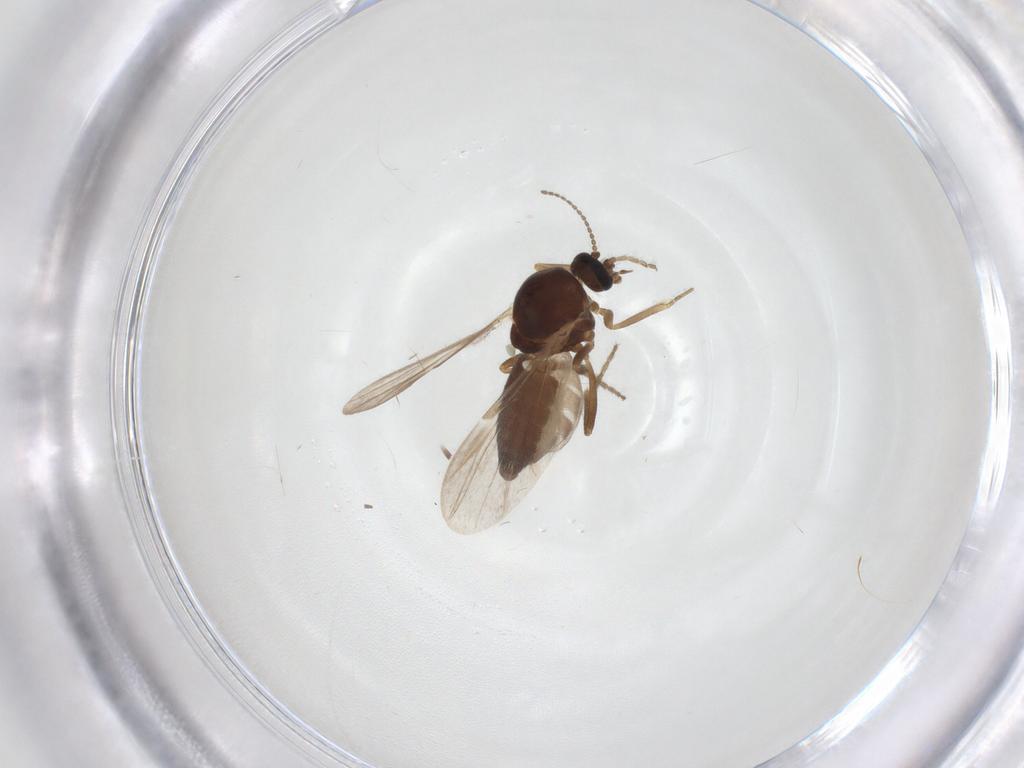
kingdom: Animalia
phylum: Arthropoda
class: Insecta
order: Diptera
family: Ceratopogonidae
